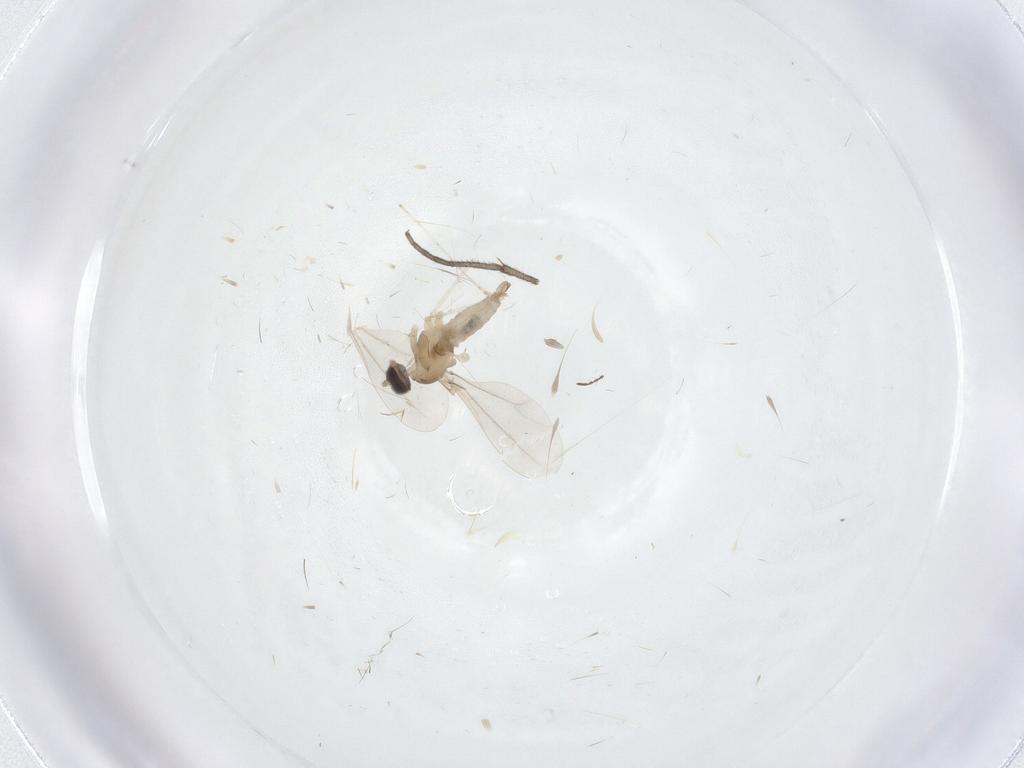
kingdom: Animalia
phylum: Arthropoda
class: Insecta
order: Diptera
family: Cecidomyiidae
